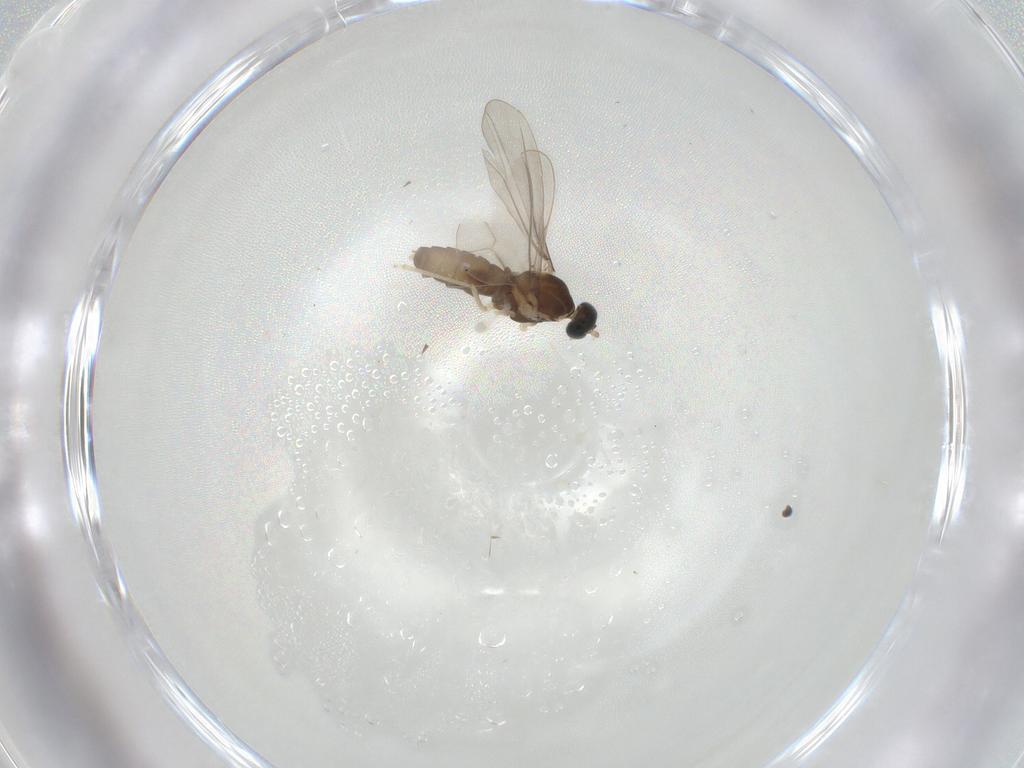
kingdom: Animalia
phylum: Arthropoda
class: Insecta
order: Diptera
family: Cecidomyiidae
